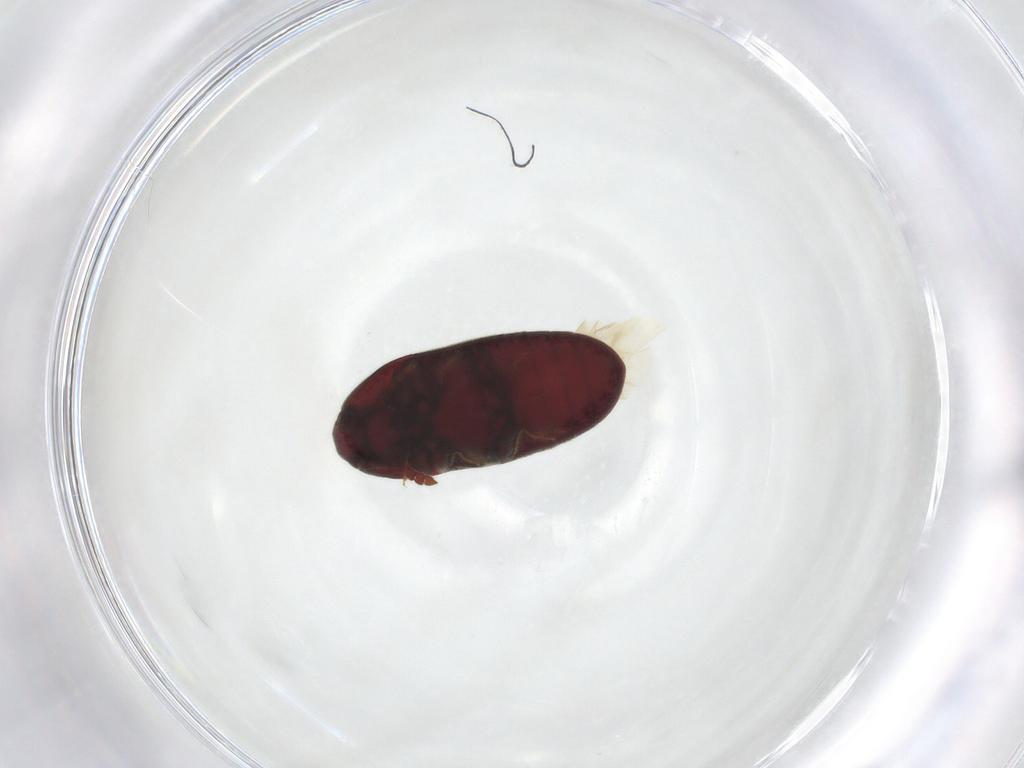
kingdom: Animalia
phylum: Arthropoda
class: Insecta
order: Coleoptera
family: Throscidae
